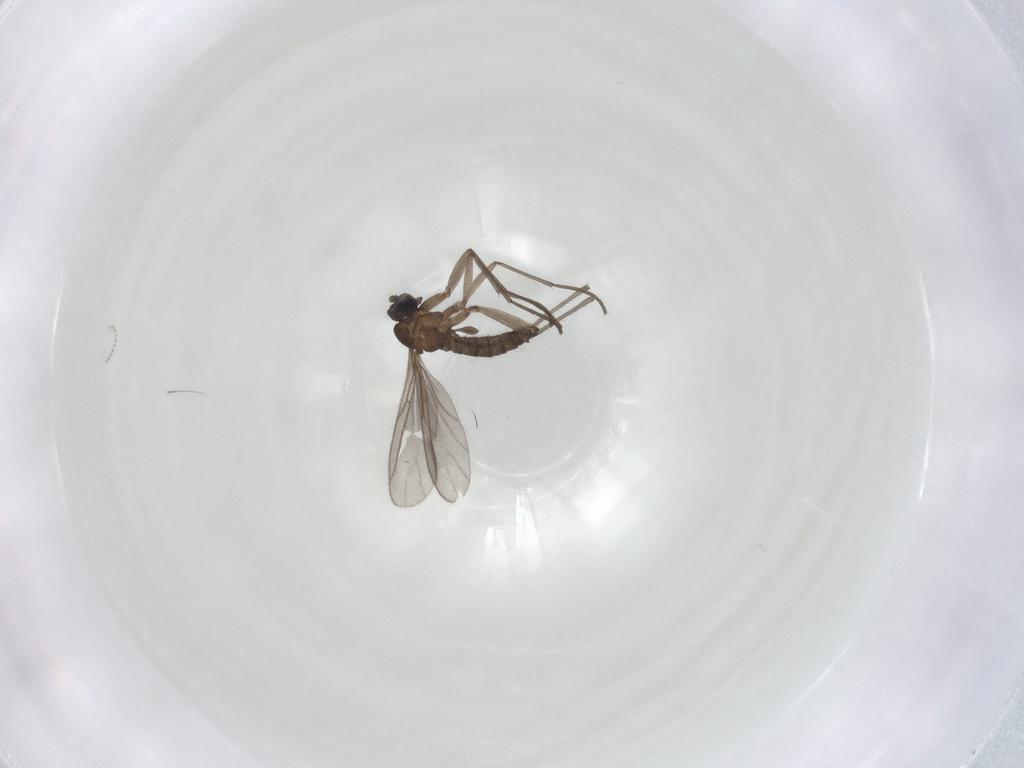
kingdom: Animalia
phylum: Arthropoda
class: Insecta
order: Diptera
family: Sciaridae
